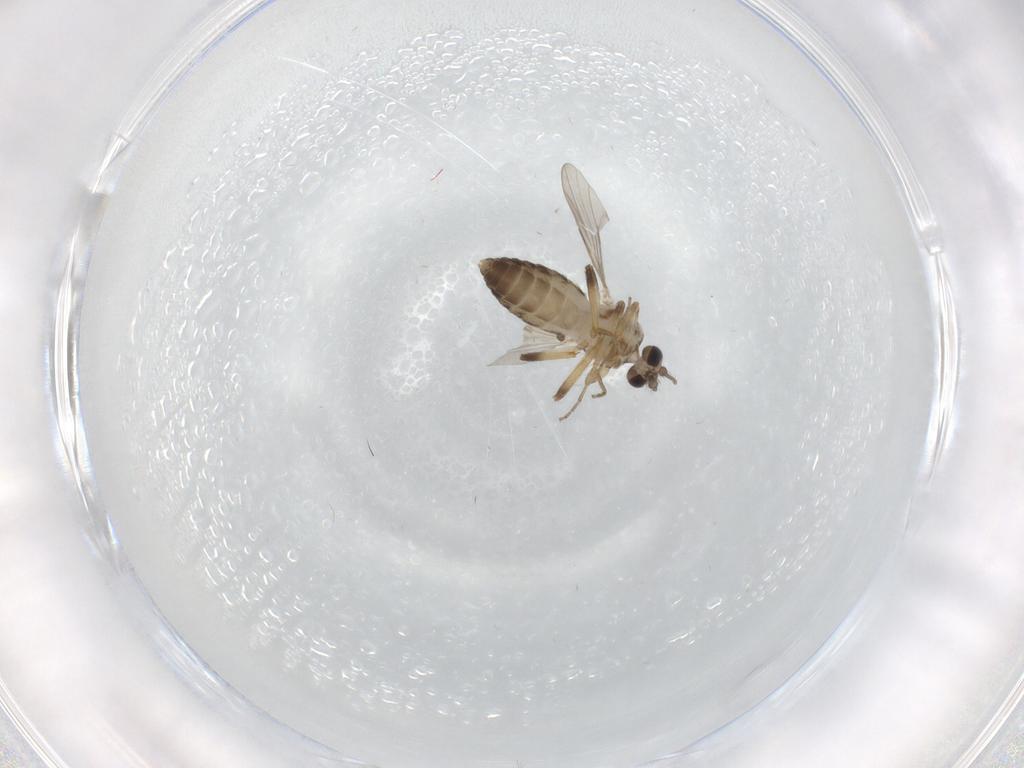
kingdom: Animalia
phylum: Arthropoda
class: Insecta
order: Diptera
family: Ceratopogonidae
